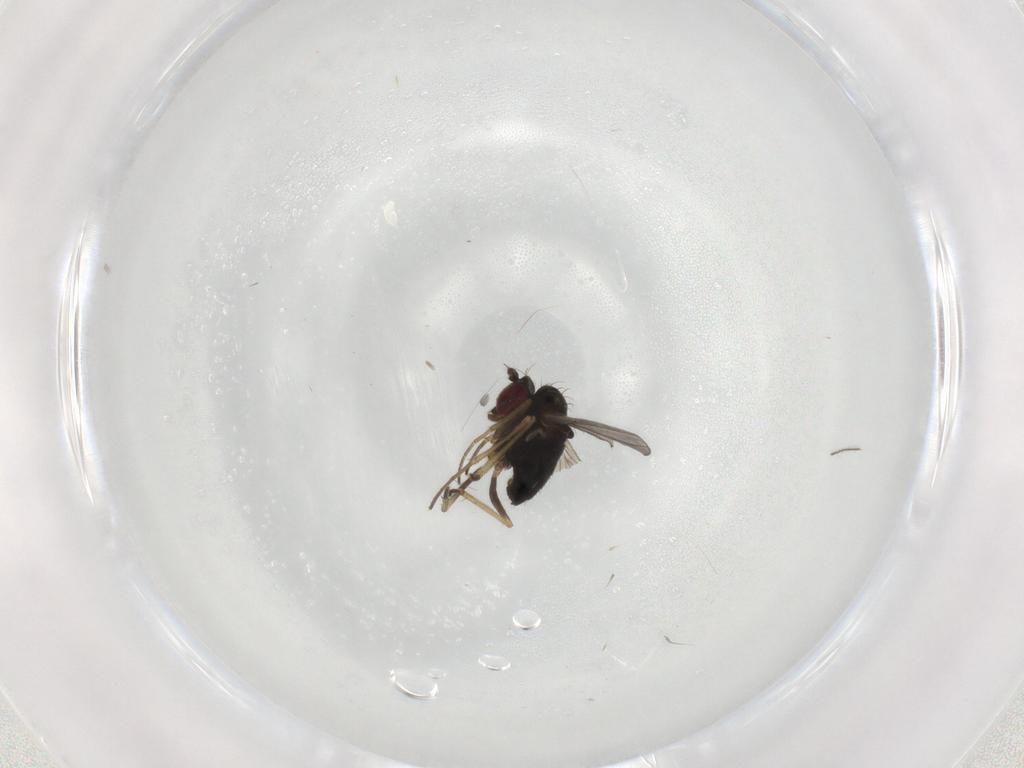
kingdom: Animalia
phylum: Arthropoda
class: Insecta
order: Diptera
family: Ceratopogonidae
